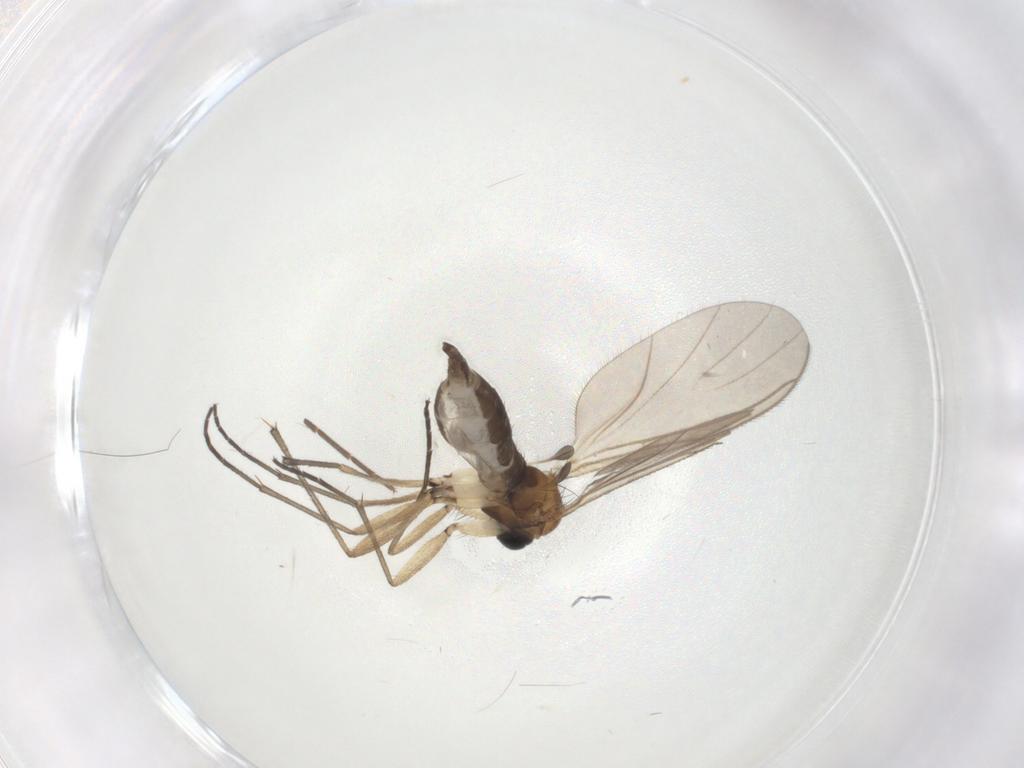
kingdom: Animalia
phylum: Arthropoda
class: Insecta
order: Diptera
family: Sciaridae
